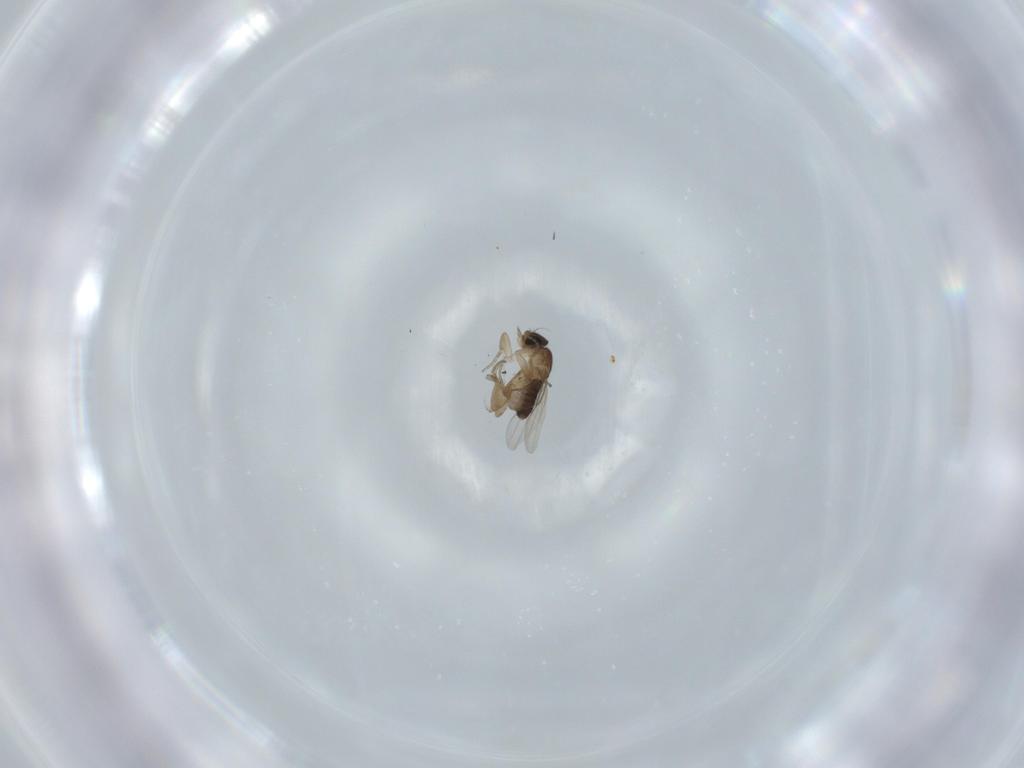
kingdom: Animalia
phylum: Arthropoda
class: Insecta
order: Diptera
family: Phoridae
